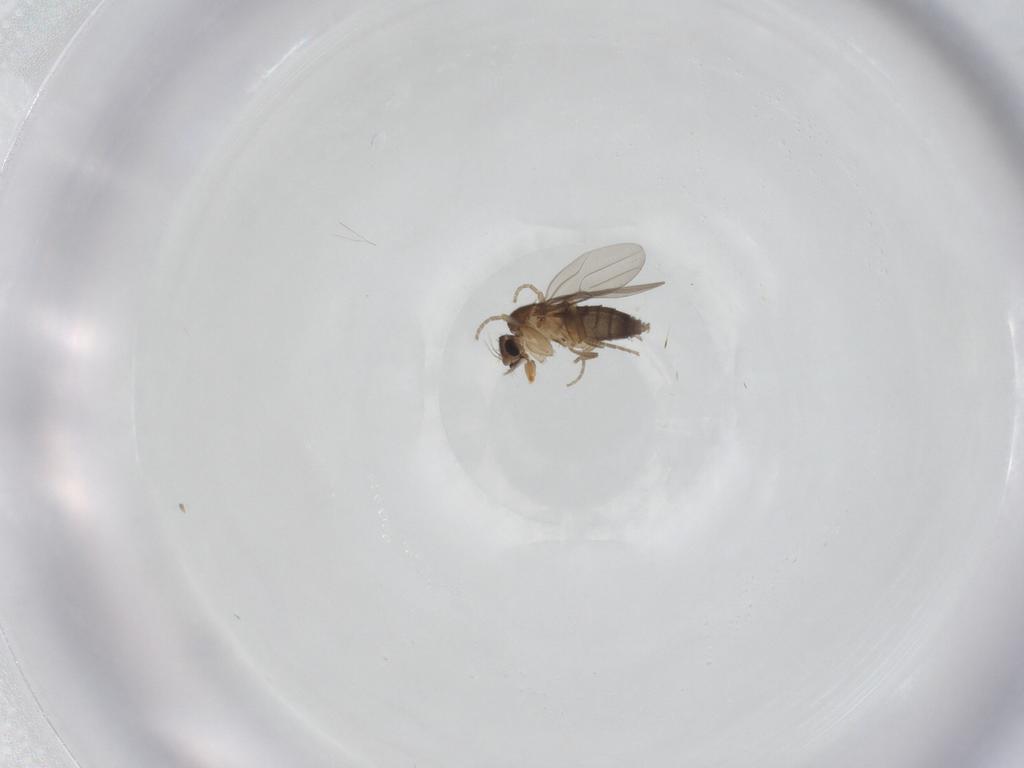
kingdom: Animalia
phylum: Arthropoda
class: Insecta
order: Diptera
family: Phoridae
